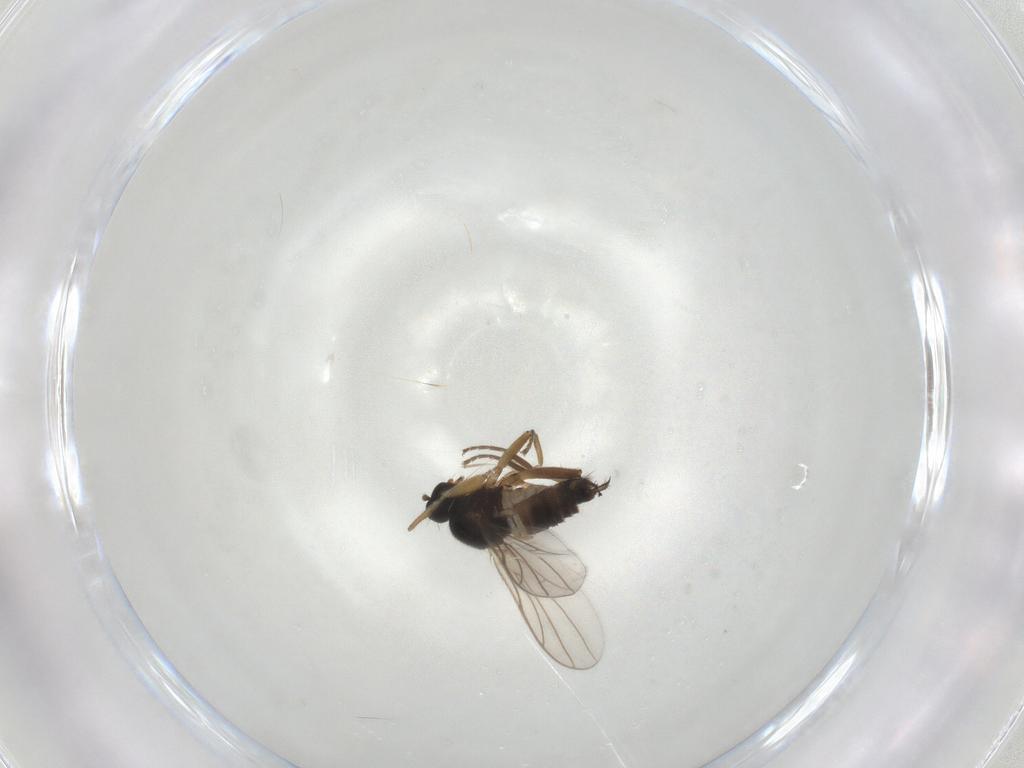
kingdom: Animalia
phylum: Arthropoda
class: Insecta
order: Diptera
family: Hybotidae
